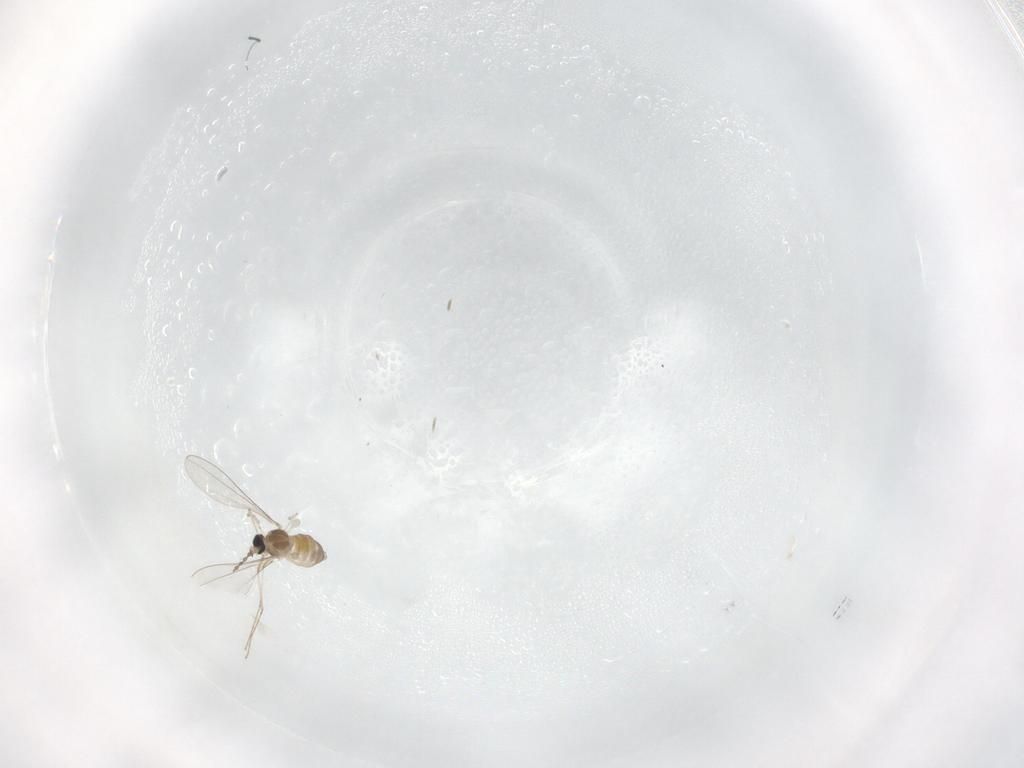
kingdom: Animalia
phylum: Arthropoda
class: Insecta
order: Diptera
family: Cecidomyiidae
